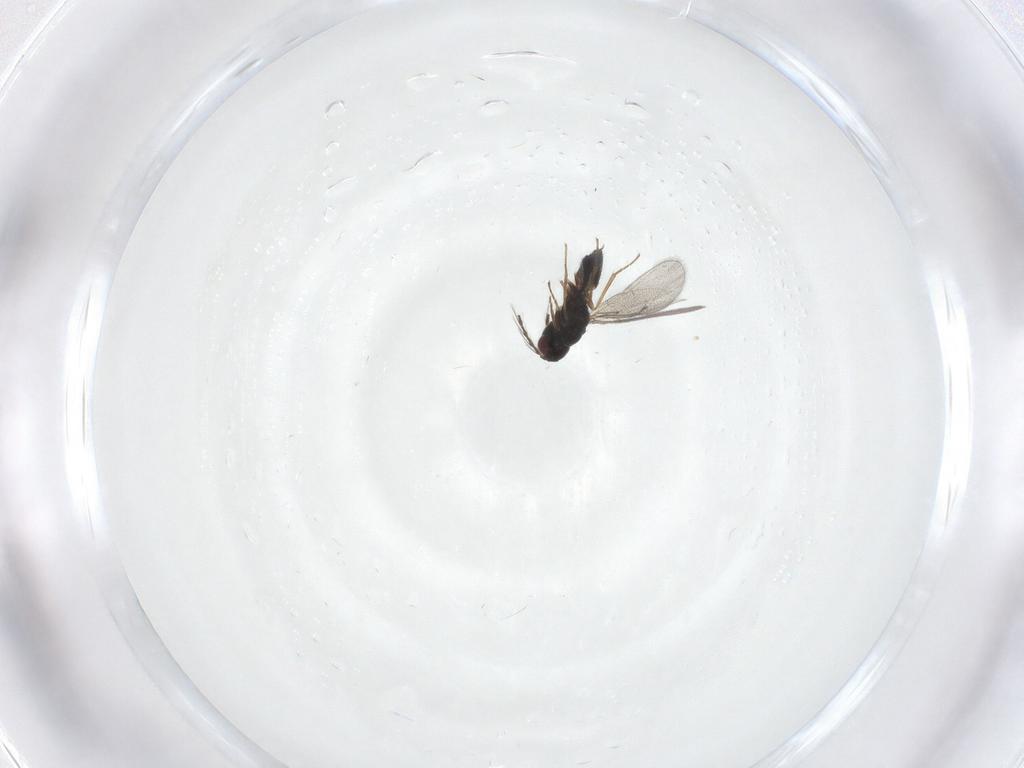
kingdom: Animalia
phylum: Arthropoda
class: Insecta
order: Hymenoptera
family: Eulophidae
